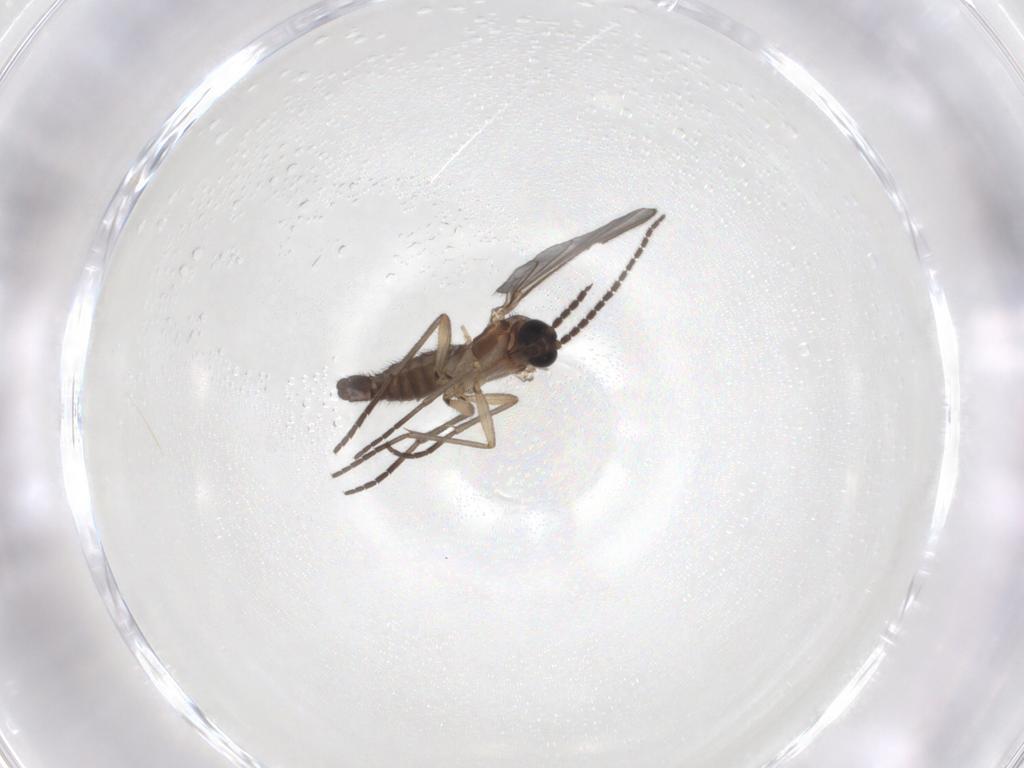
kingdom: Animalia
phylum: Arthropoda
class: Insecta
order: Diptera
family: Sciaridae
